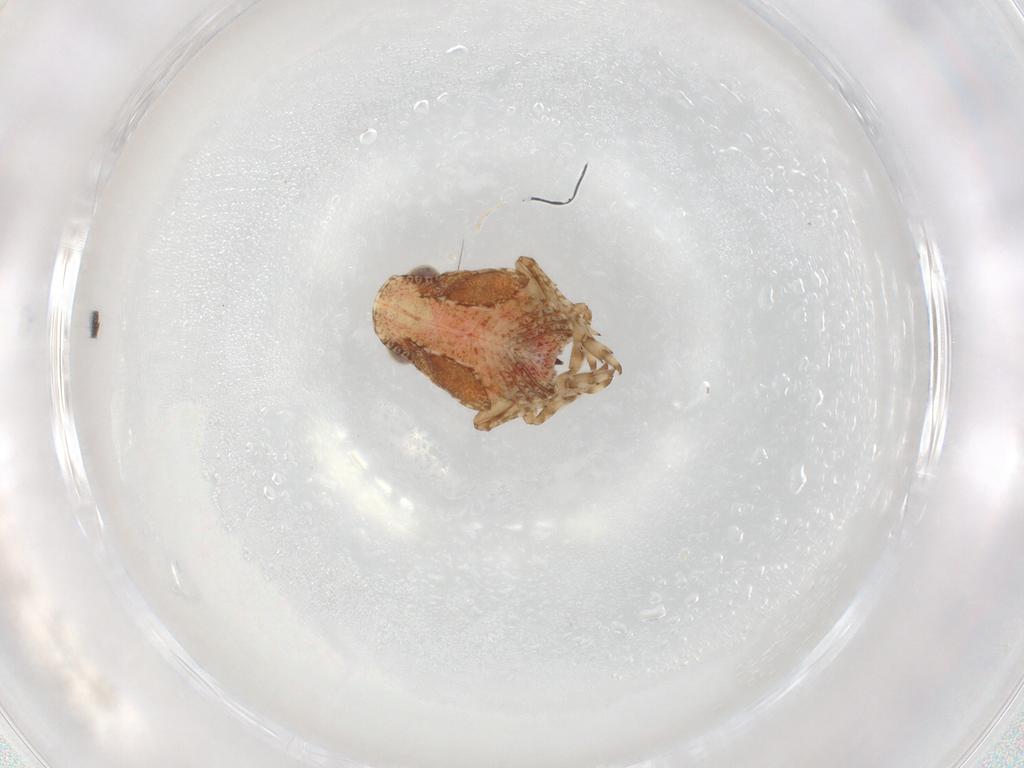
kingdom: Animalia
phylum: Arthropoda
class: Insecta
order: Hemiptera
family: Nogodinidae
